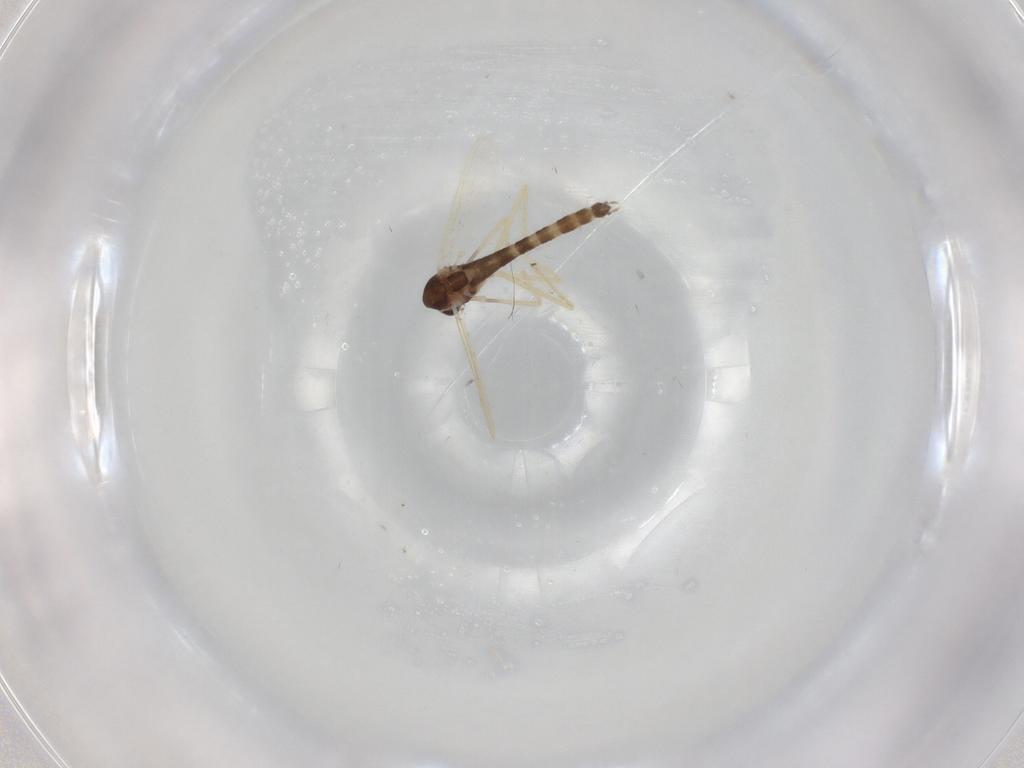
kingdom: Animalia
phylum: Arthropoda
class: Insecta
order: Diptera
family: Chironomidae
